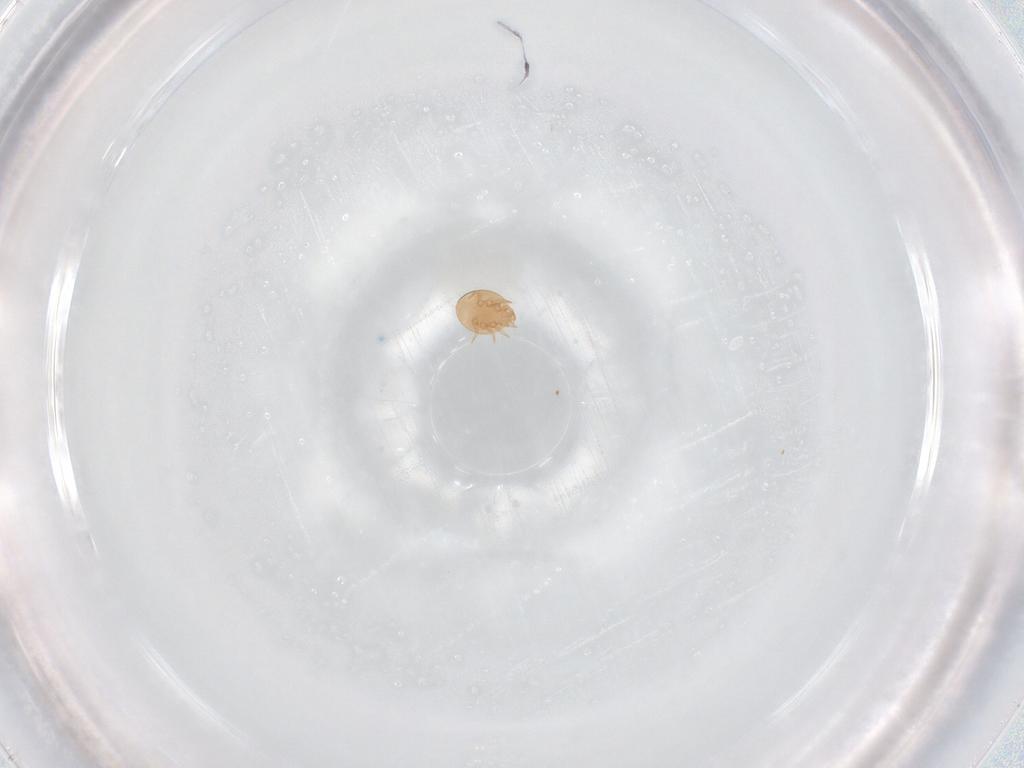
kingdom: Animalia
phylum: Arthropoda
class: Arachnida
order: Mesostigmata
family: Trematuridae
